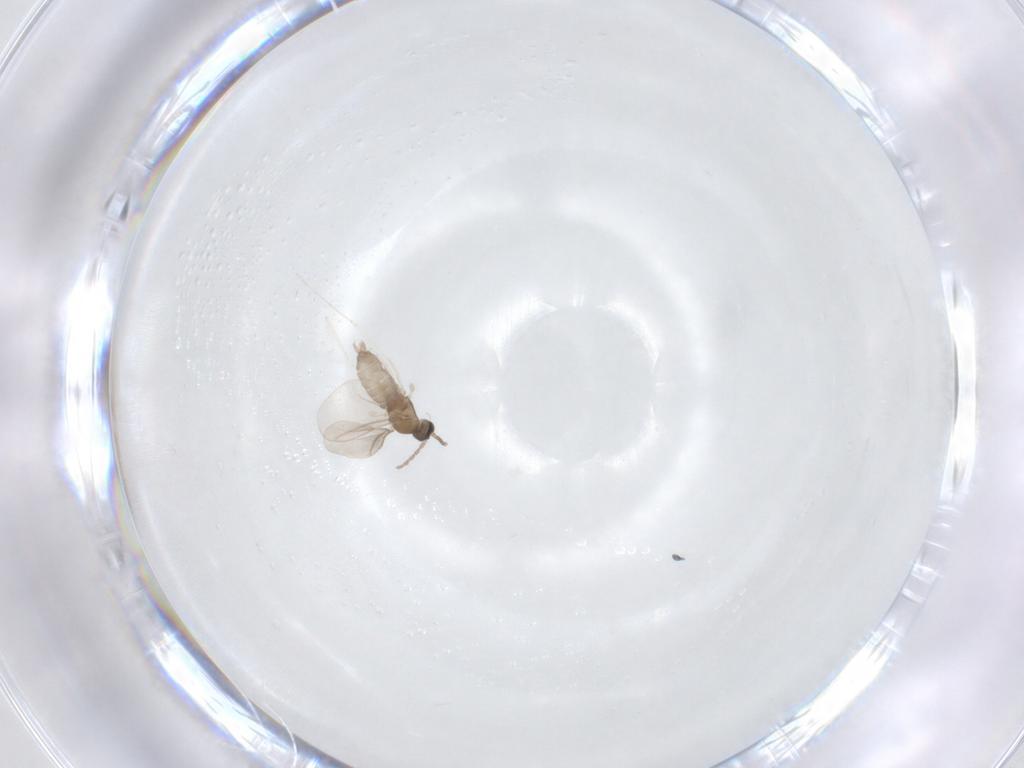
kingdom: Animalia
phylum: Arthropoda
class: Insecta
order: Diptera
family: Cecidomyiidae
